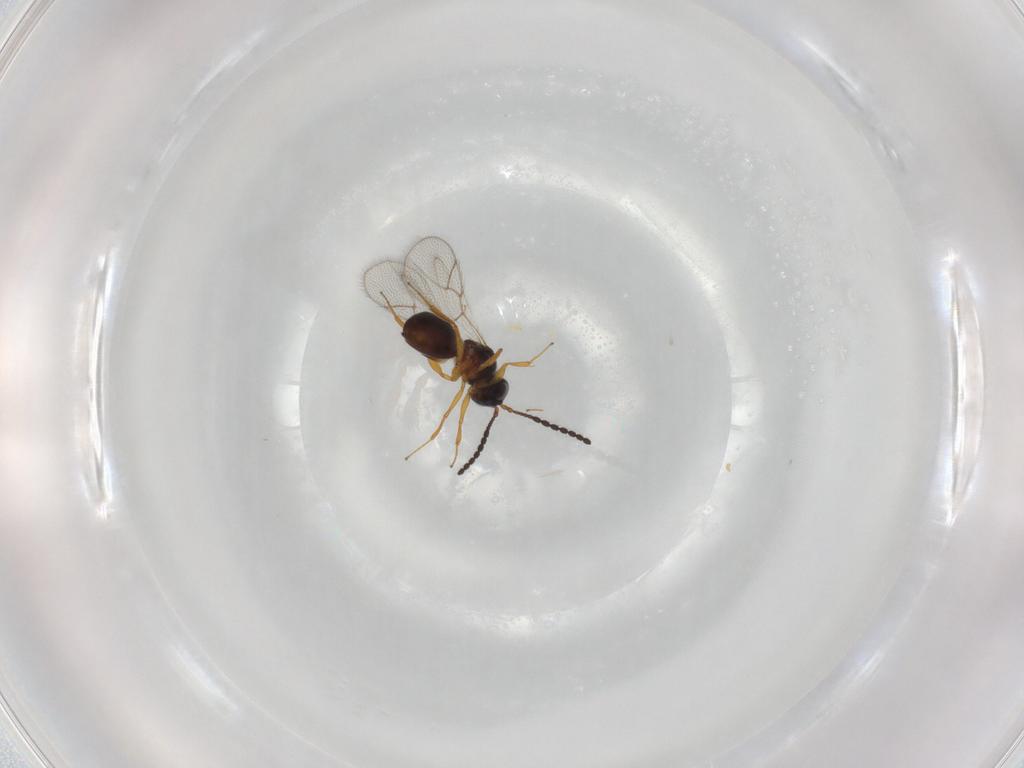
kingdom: Animalia
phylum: Arthropoda
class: Insecta
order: Hymenoptera
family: Figitidae
